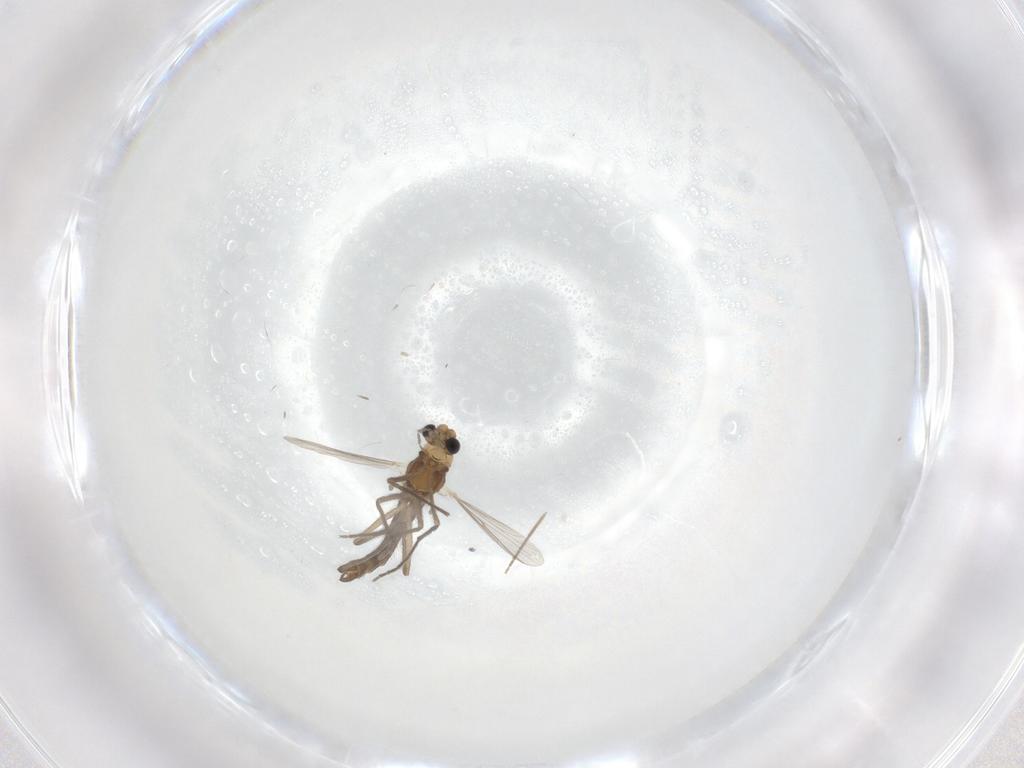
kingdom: Animalia
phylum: Arthropoda
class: Insecta
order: Diptera
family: Chironomidae
